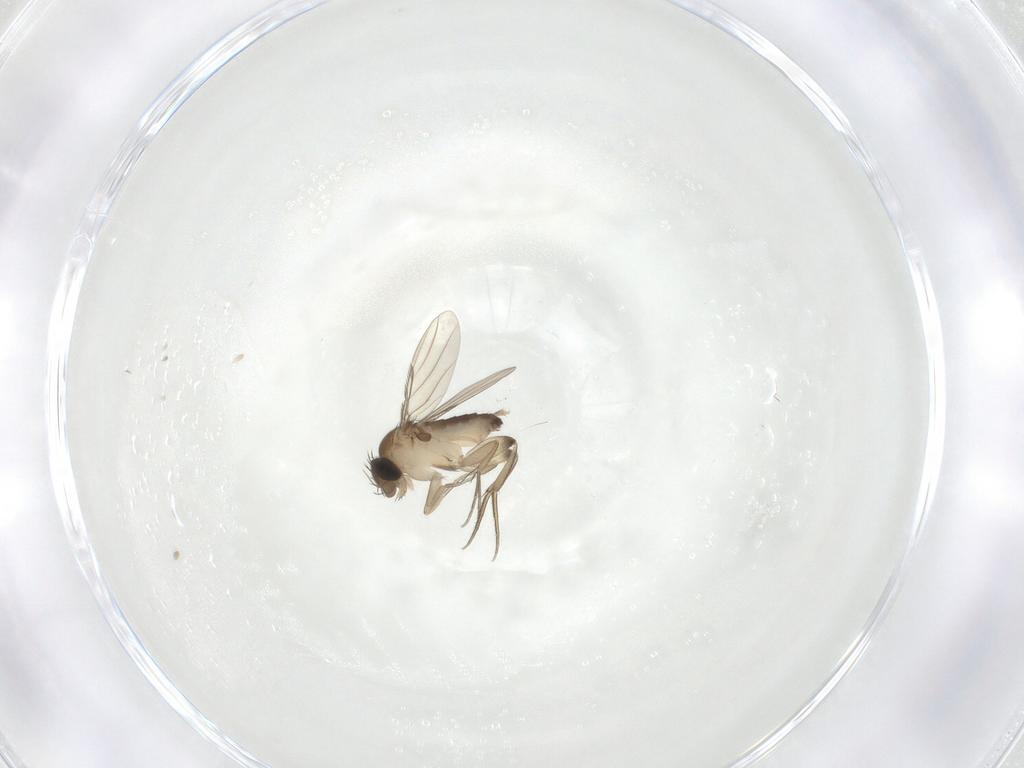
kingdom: Animalia
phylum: Arthropoda
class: Insecta
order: Diptera
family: Phoridae
